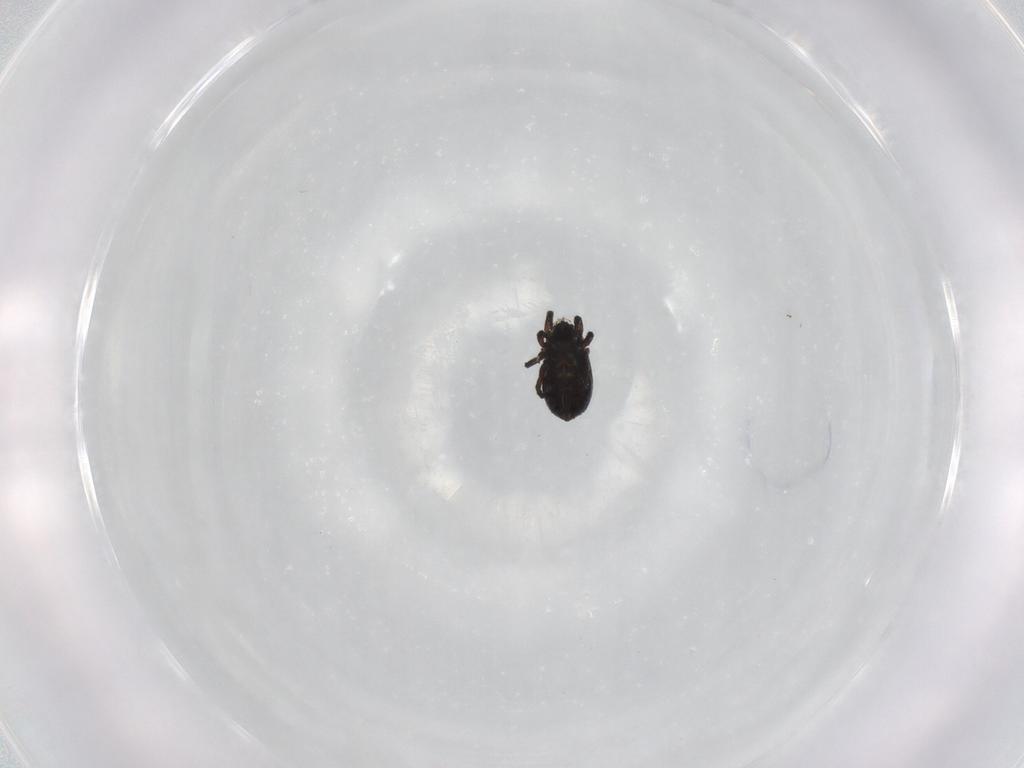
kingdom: Animalia
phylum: Arthropoda
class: Arachnida
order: Sarcoptiformes
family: Crotoniidae
